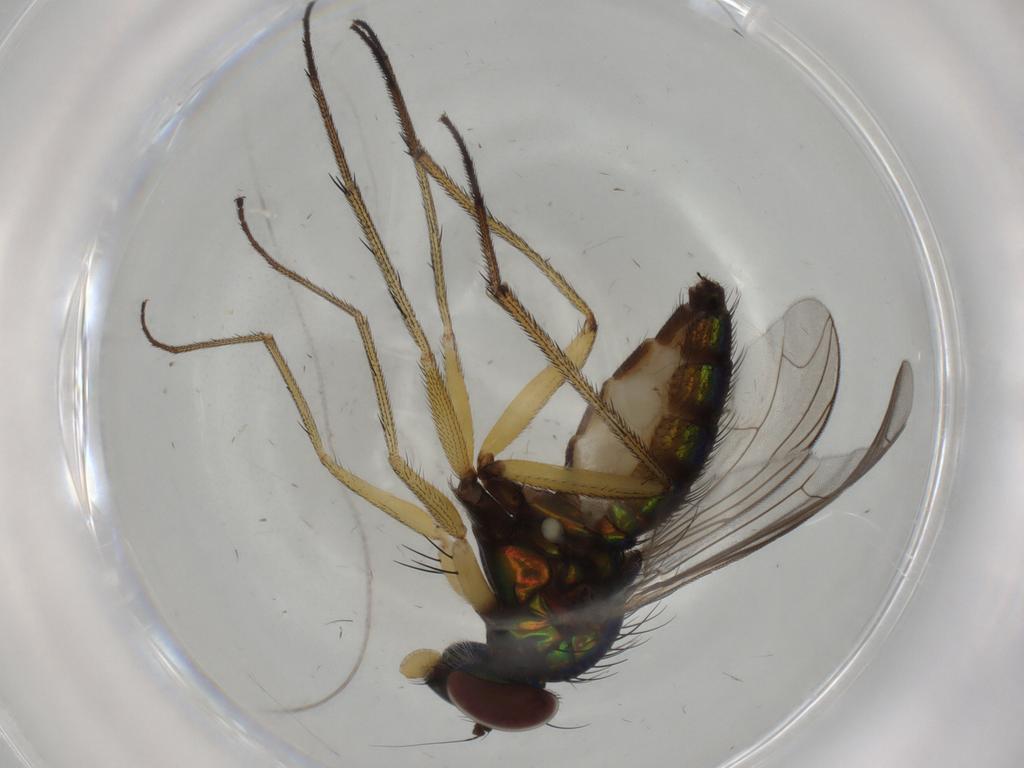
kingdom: Animalia
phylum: Arthropoda
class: Insecta
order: Diptera
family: Dolichopodidae
